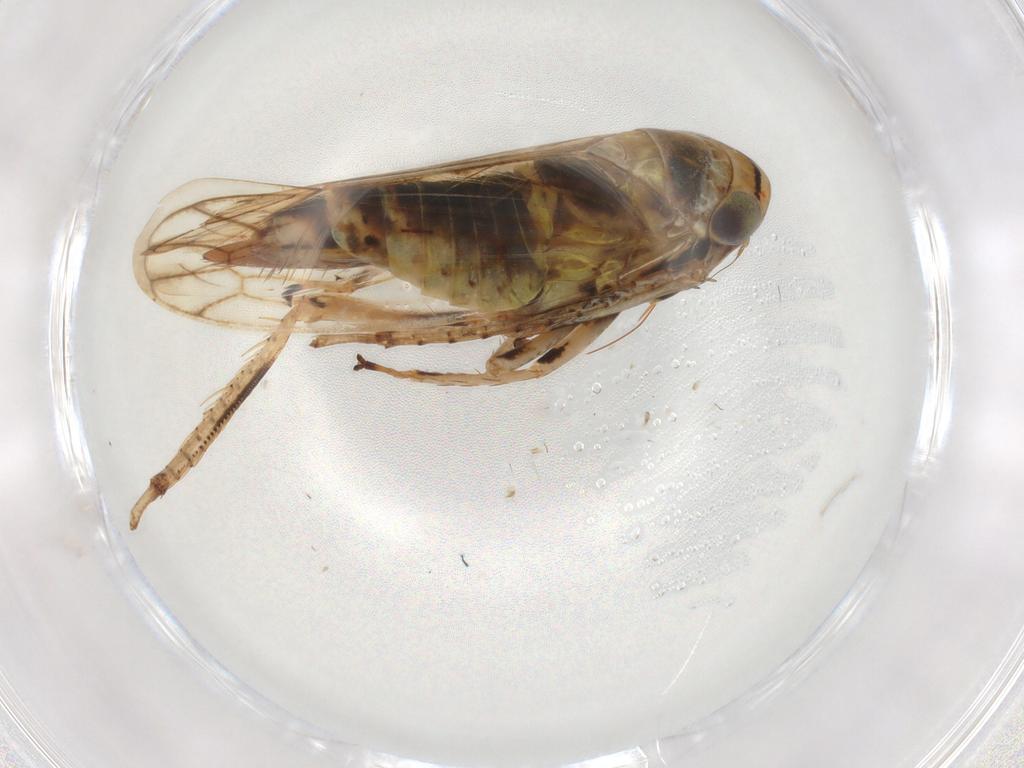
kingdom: Animalia
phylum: Arthropoda
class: Insecta
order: Hemiptera
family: Cicadellidae
